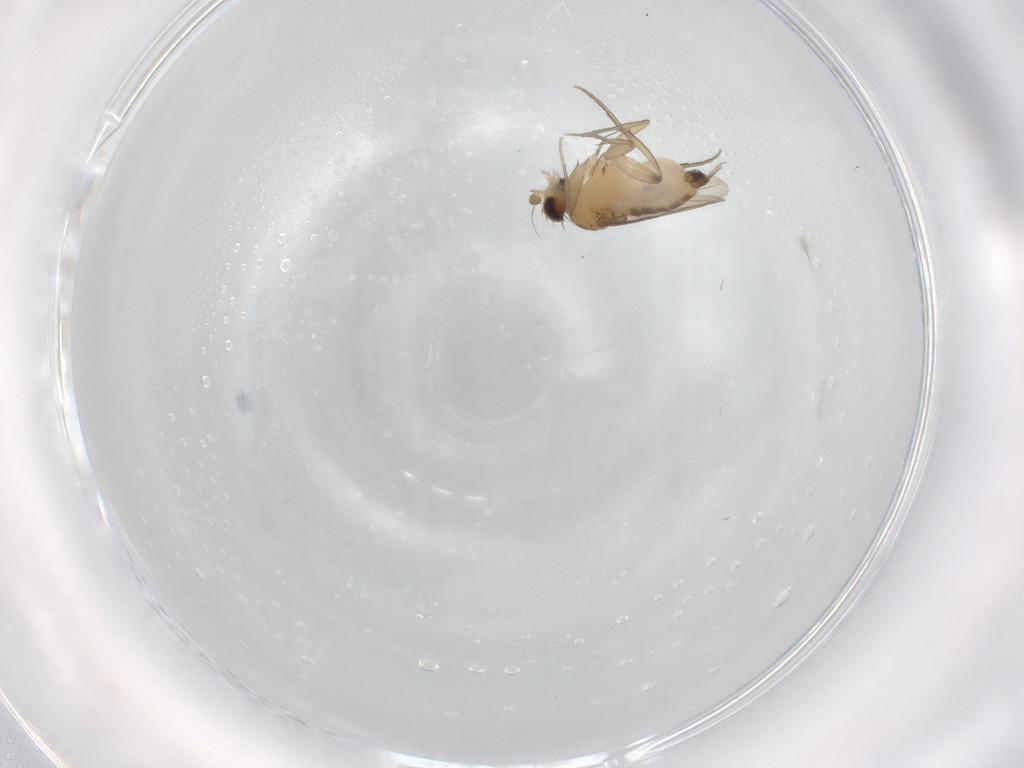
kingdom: Animalia
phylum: Arthropoda
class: Insecta
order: Diptera
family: Phoridae
